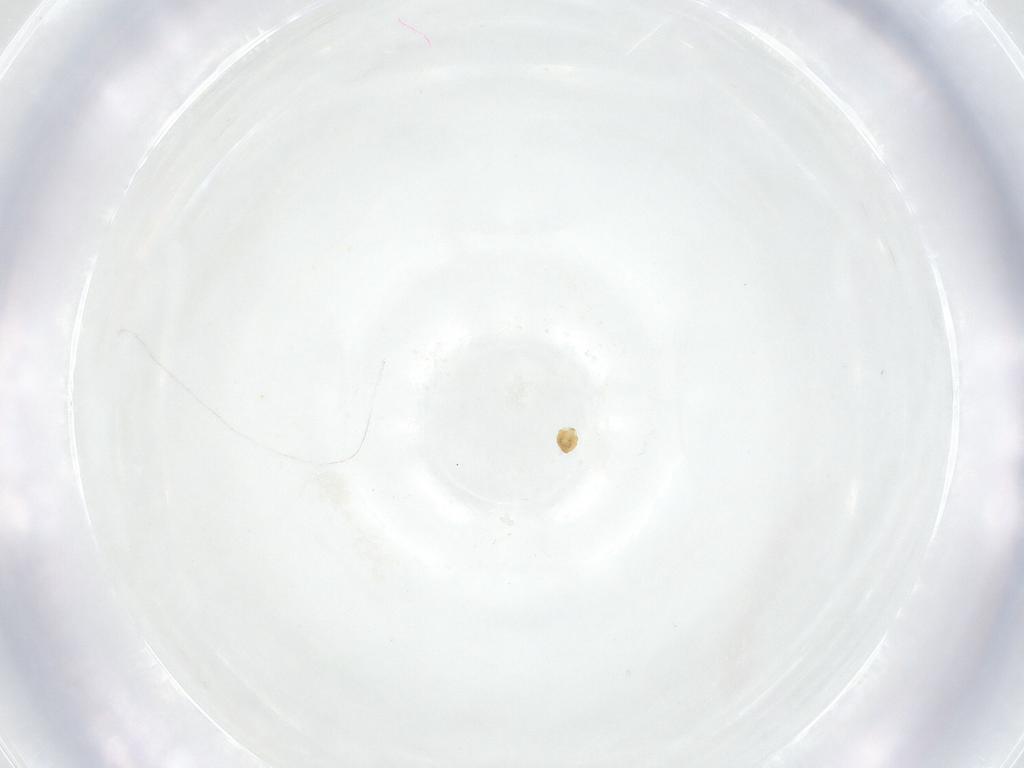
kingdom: Animalia
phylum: Arthropoda
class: Insecta
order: Diptera
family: Fergusoninidae
